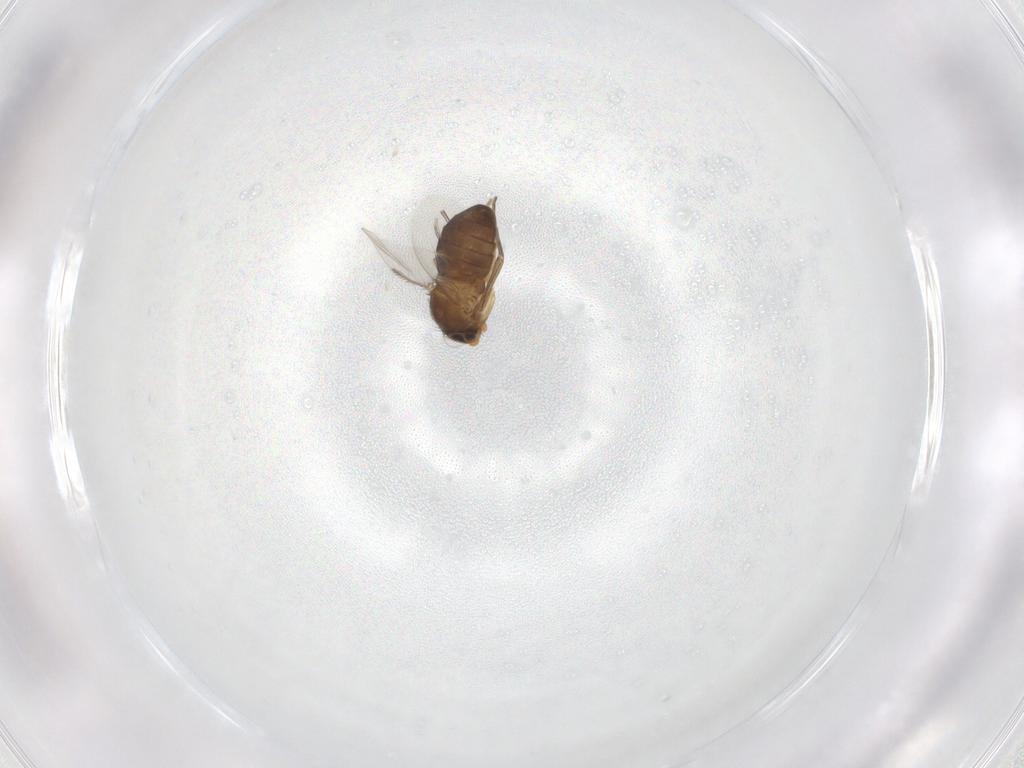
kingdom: Animalia
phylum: Arthropoda
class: Insecta
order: Diptera
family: Phoridae
